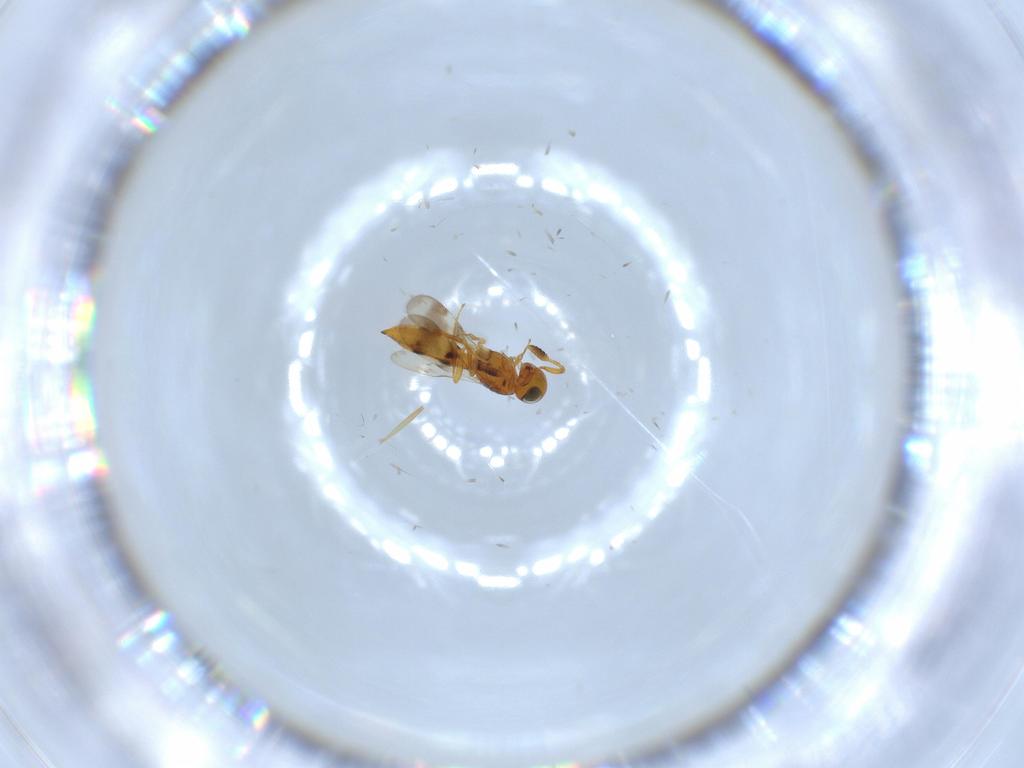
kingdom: Animalia
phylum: Arthropoda
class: Insecta
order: Hymenoptera
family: Scelionidae
